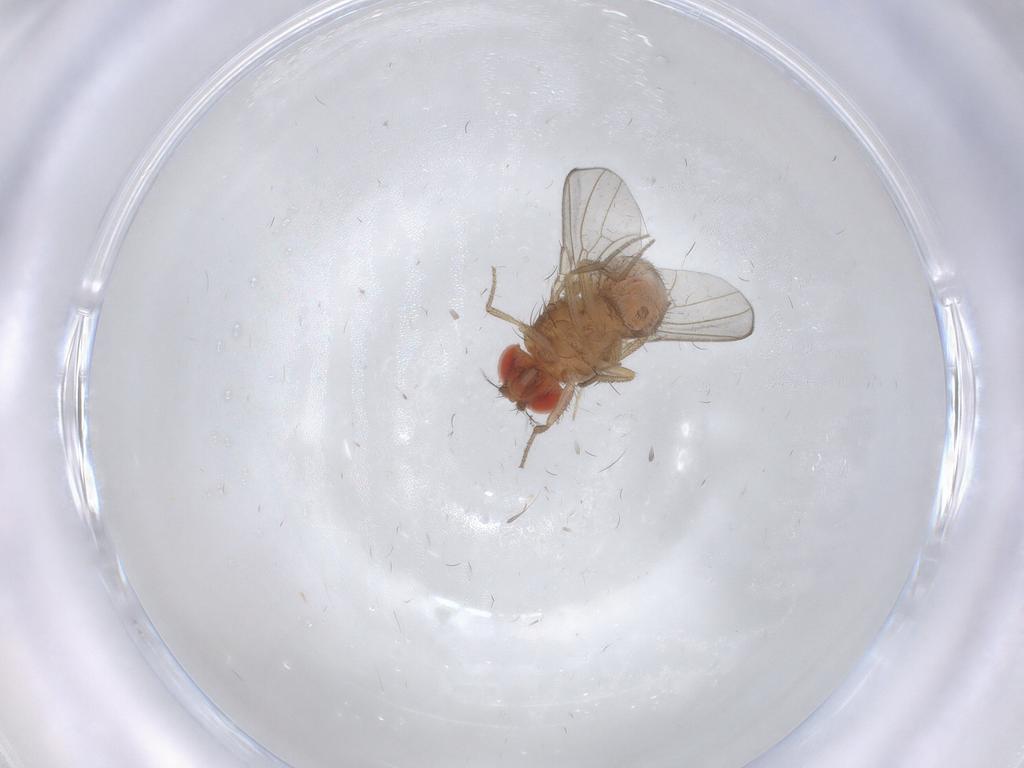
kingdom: Animalia
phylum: Arthropoda
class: Insecta
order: Diptera
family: Drosophilidae
